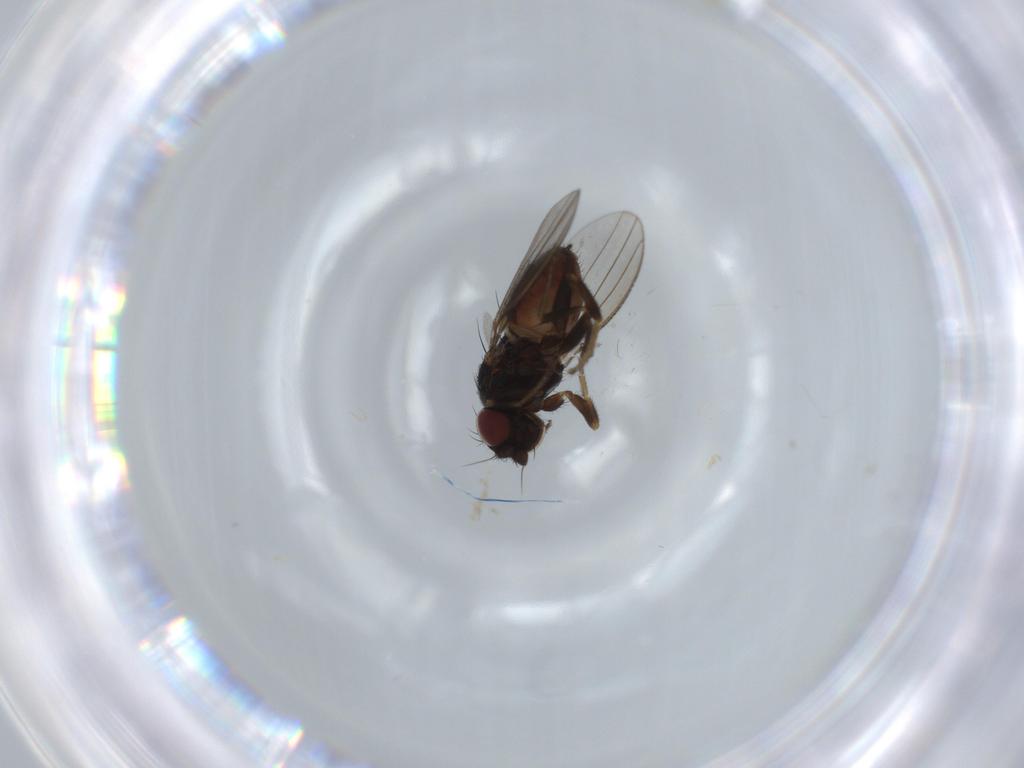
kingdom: Animalia
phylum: Arthropoda
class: Insecta
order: Diptera
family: Milichiidae
